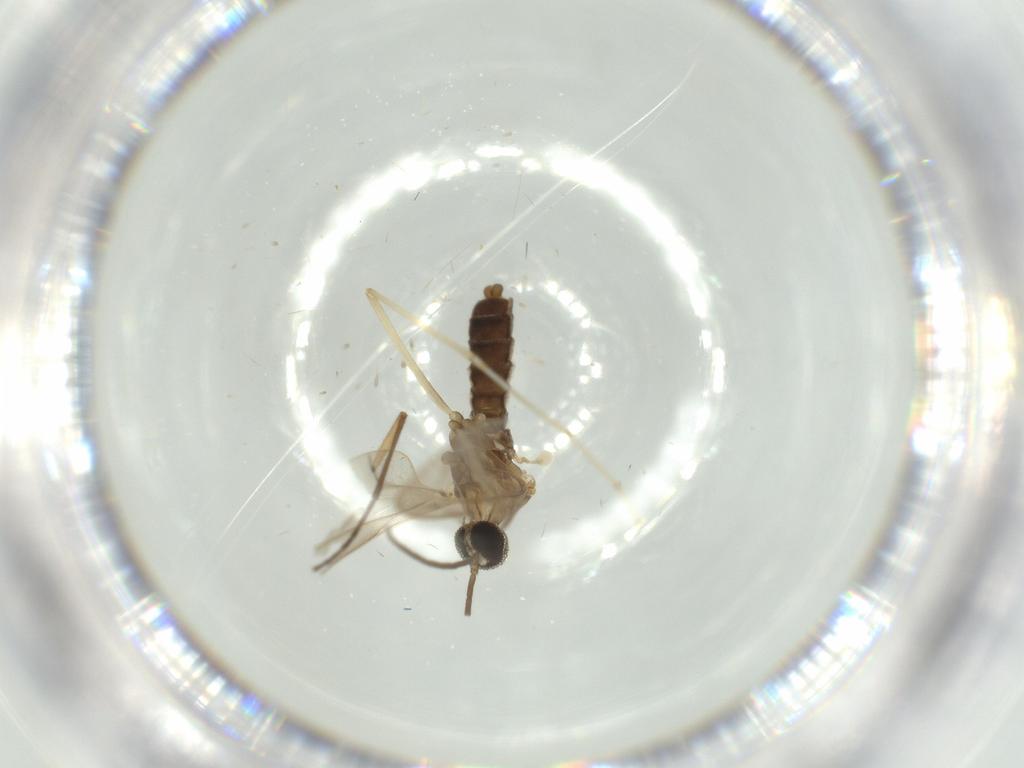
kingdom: Animalia
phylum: Arthropoda
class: Insecta
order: Diptera
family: Cecidomyiidae
